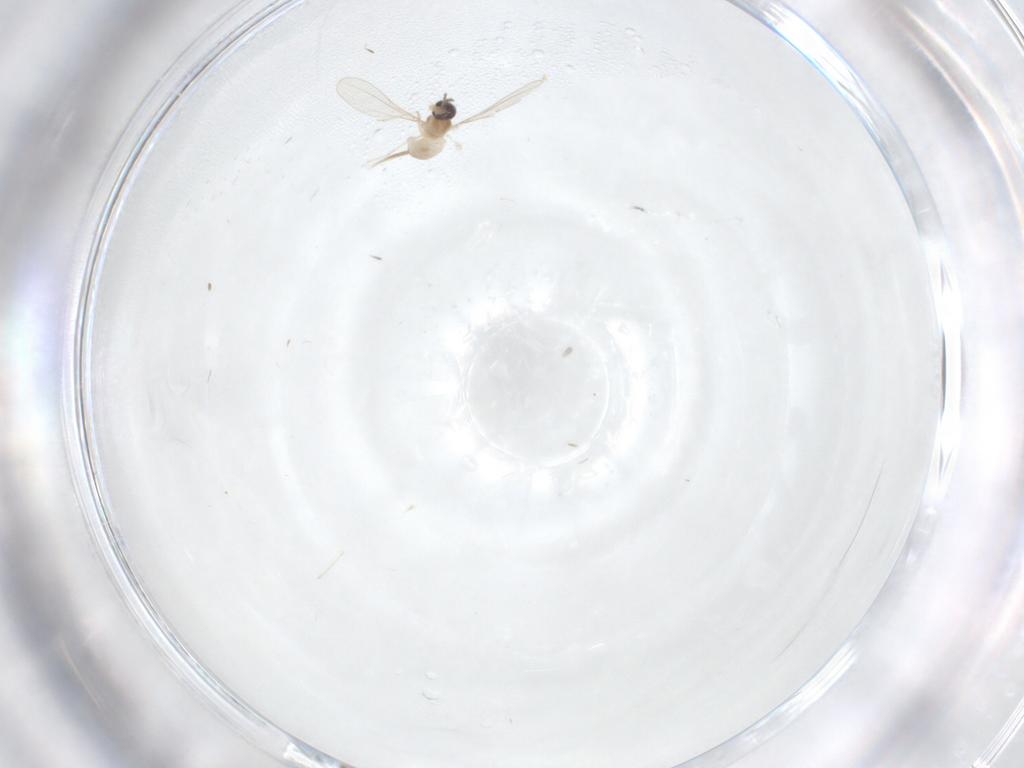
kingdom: Animalia
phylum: Arthropoda
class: Insecta
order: Diptera
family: Cecidomyiidae
